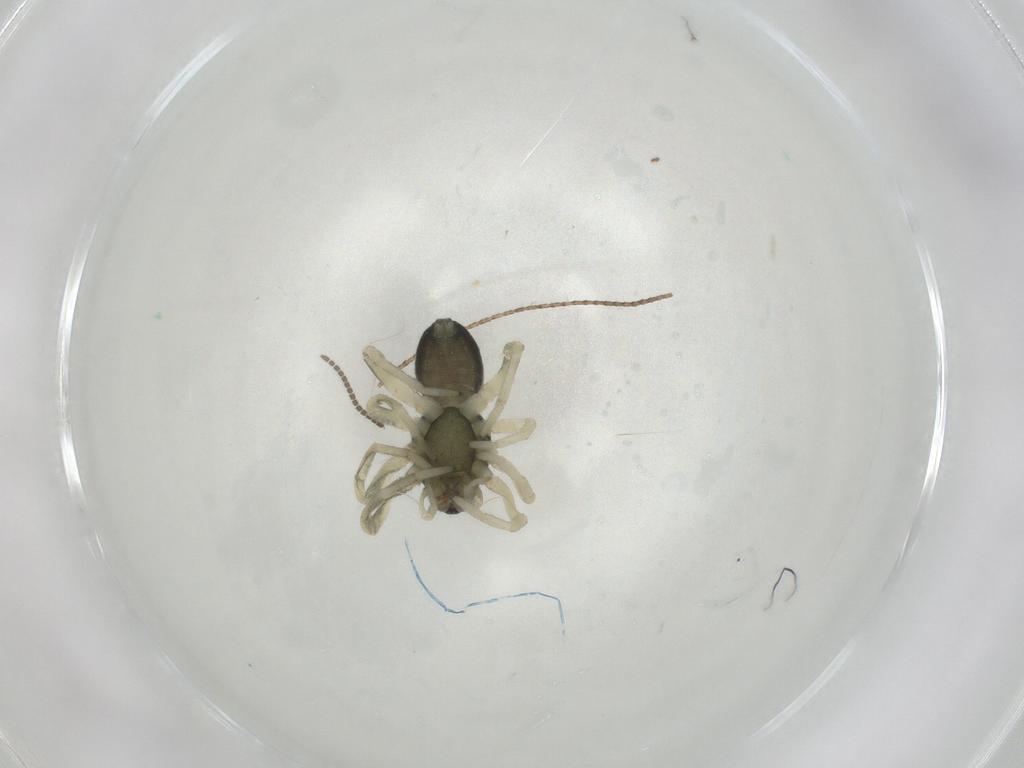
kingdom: Animalia
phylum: Arthropoda
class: Arachnida
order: Araneae
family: Trachelidae
